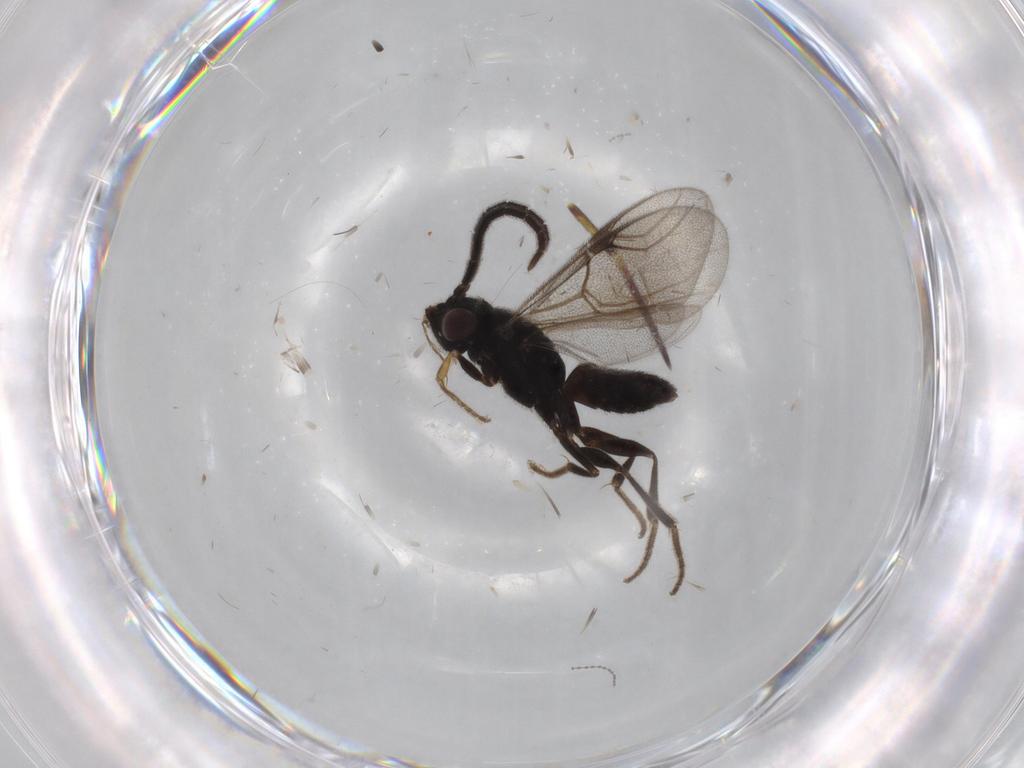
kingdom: Animalia
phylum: Arthropoda
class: Insecta
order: Hymenoptera
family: Dryinidae
